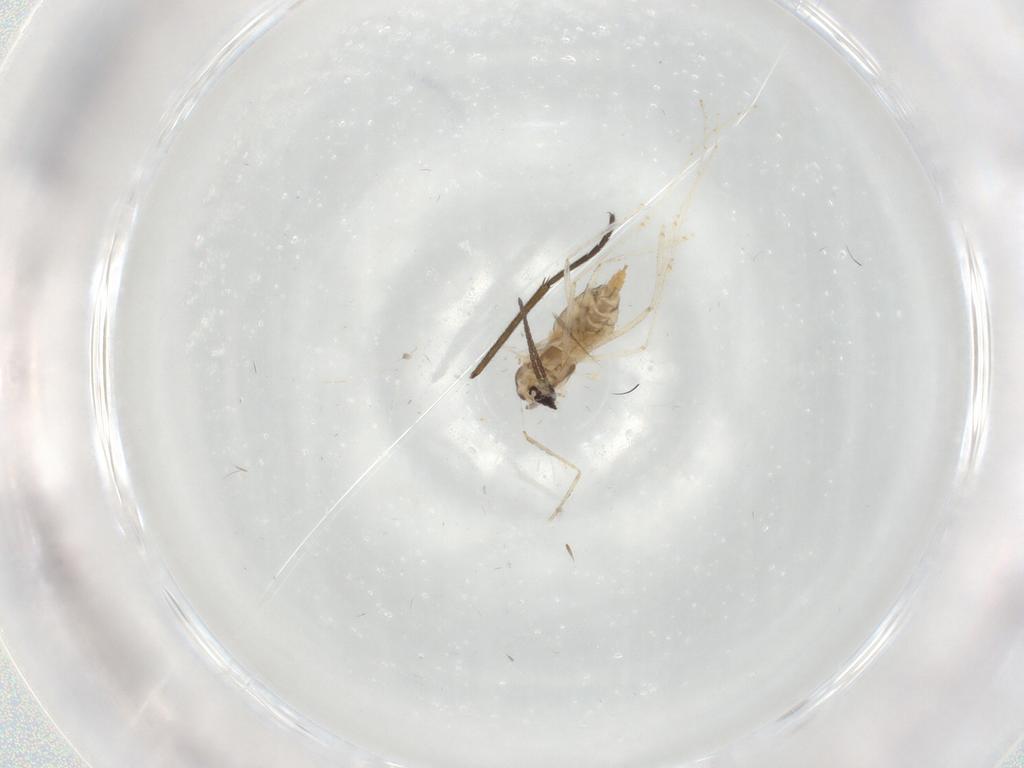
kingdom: Animalia
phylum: Arthropoda
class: Insecta
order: Diptera
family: Cecidomyiidae
